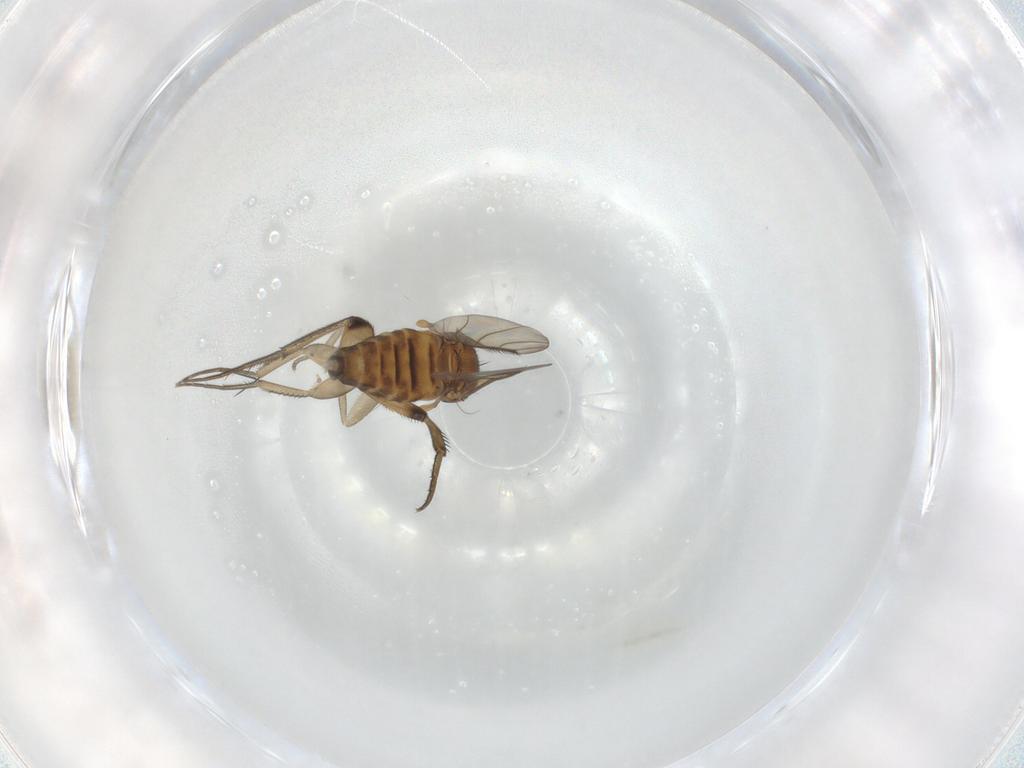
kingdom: Animalia
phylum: Arthropoda
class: Insecta
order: Diptera
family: Phoridae
